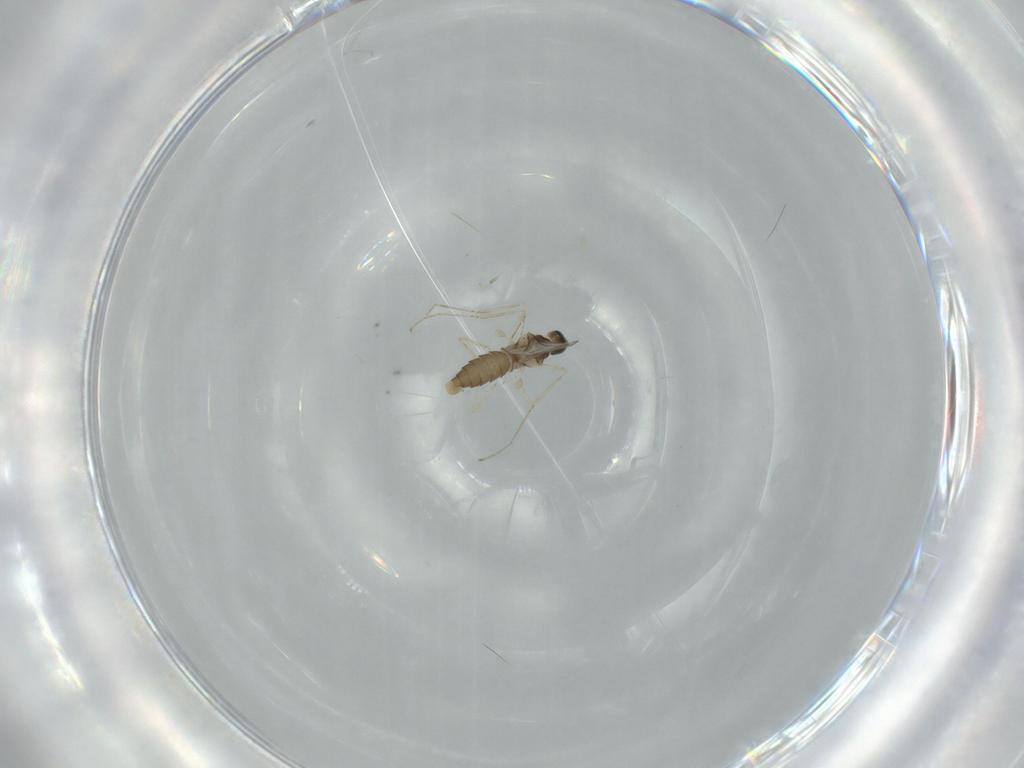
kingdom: Animalia
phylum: Arthropoda
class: Insecta
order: Diptera
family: Cecidomyiidae
